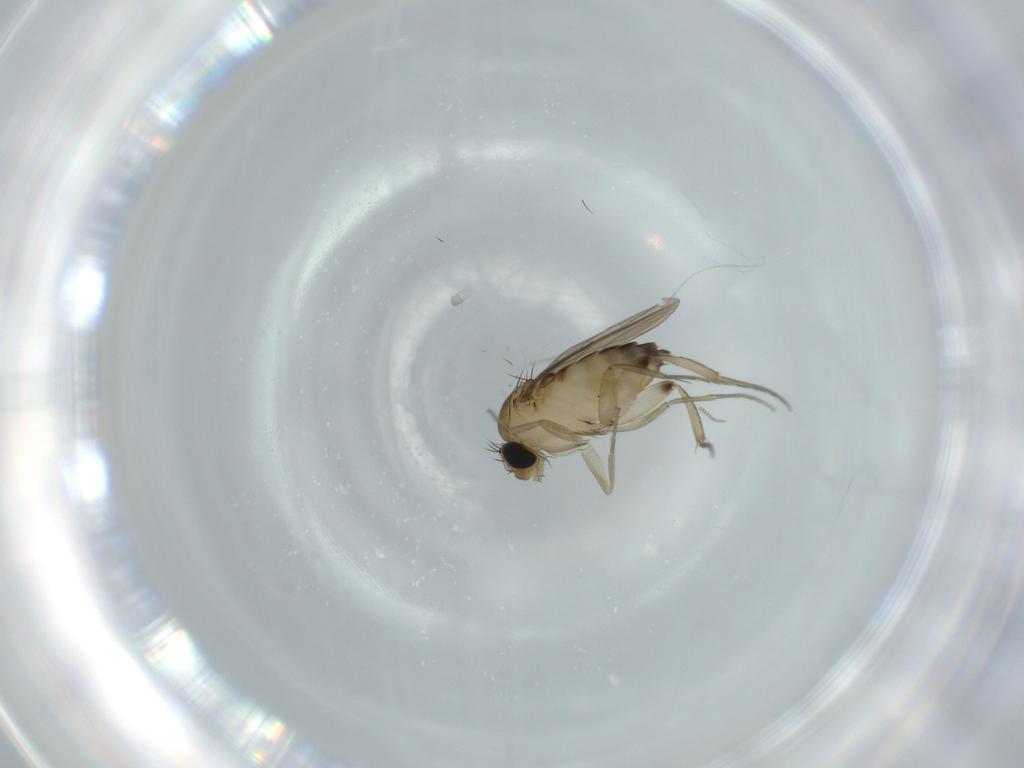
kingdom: Animalia
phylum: Arthropoda
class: Insecta
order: Diptera
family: Phoridae
